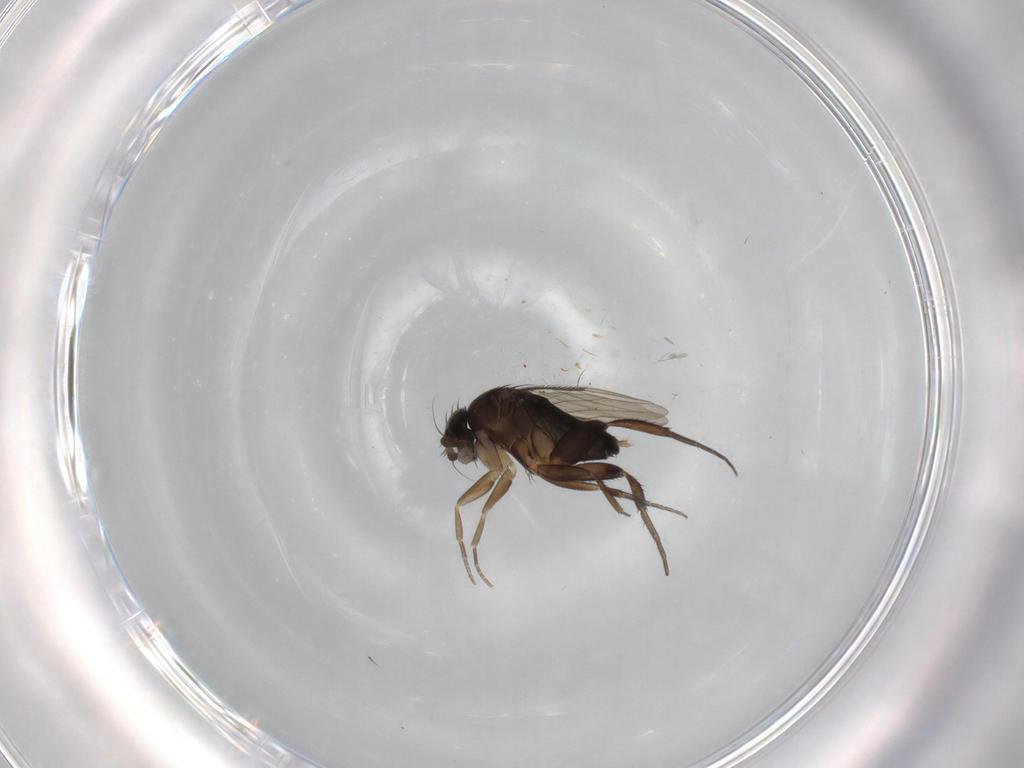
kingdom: Animalia
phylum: Arthropoda
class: Insecta
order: Diptera
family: Phoridae
